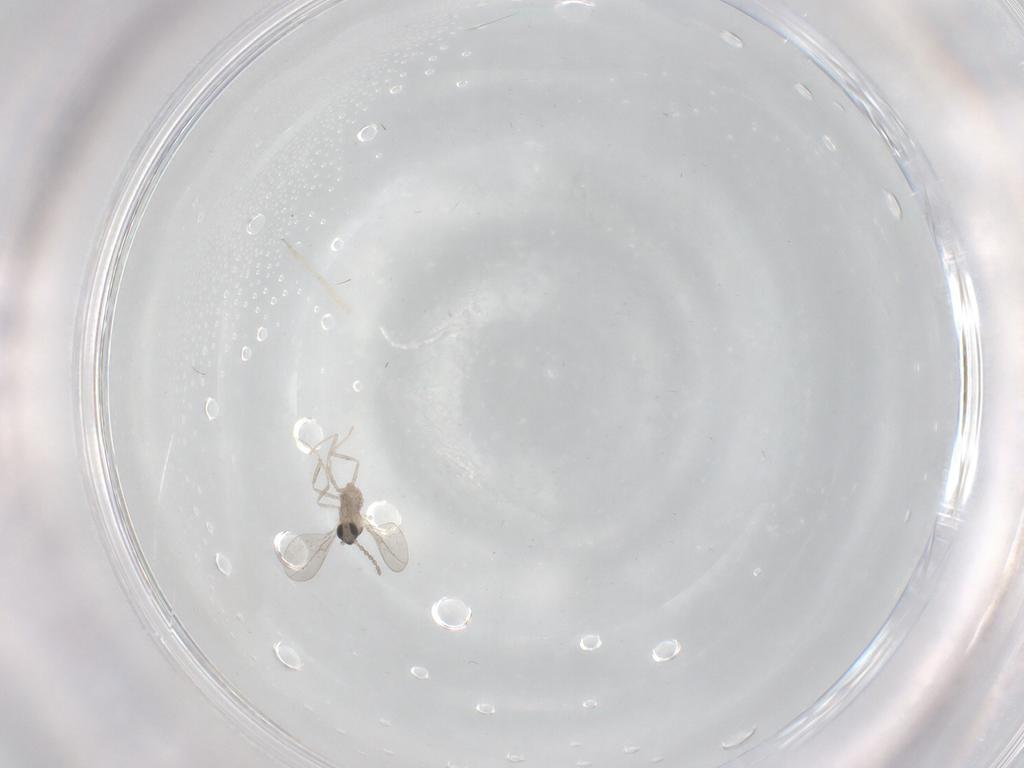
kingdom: Animalia
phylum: Arthropoda
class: Insecta
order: Diptera
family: Cecidomyiidae
